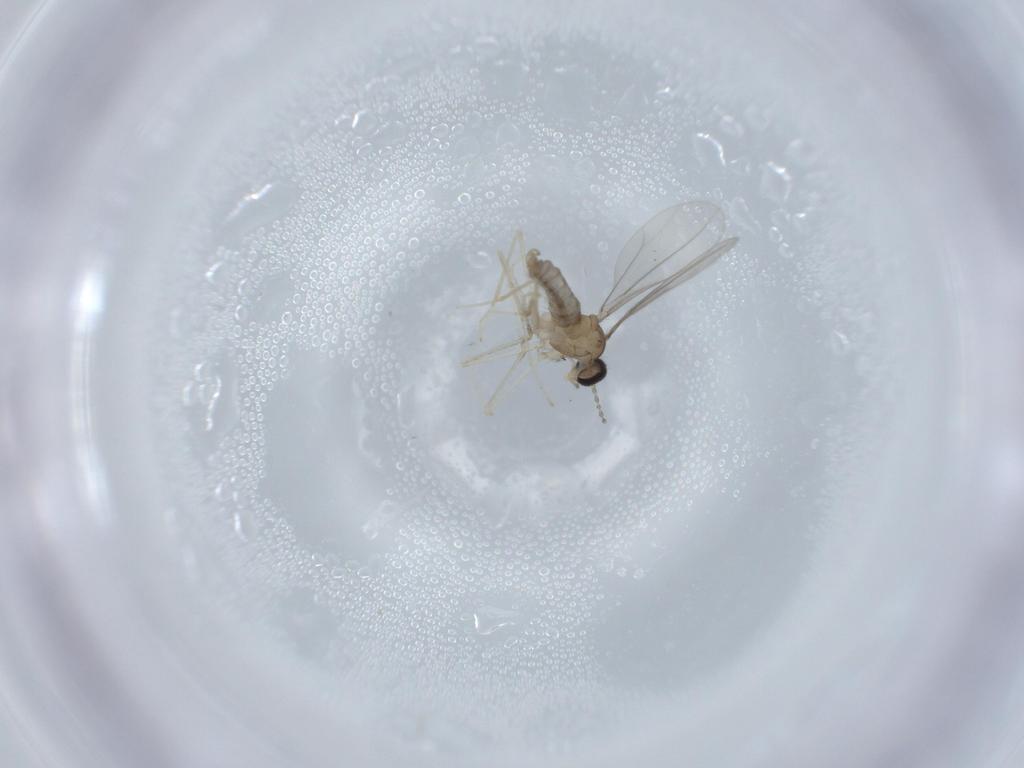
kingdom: Animalia
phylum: Arthropoda
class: Insecta
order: Diptera
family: Cecidomyiidae
